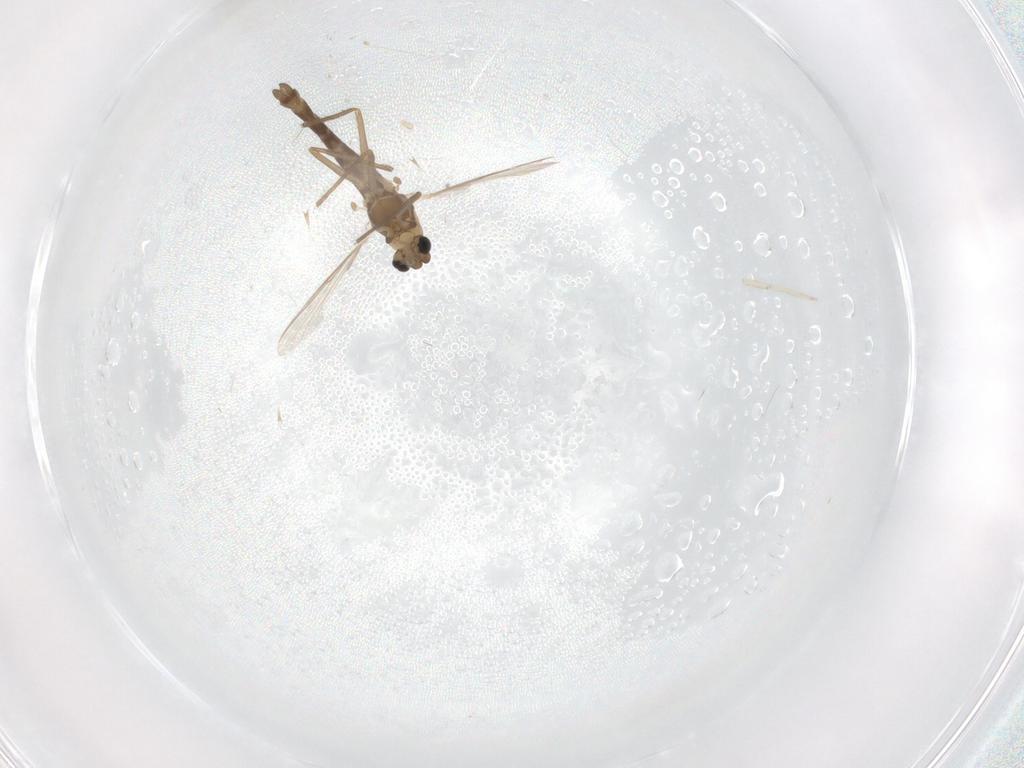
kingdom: Animalia
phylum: Arthropoda
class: Insecta
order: Diptera
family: Chironomidae
